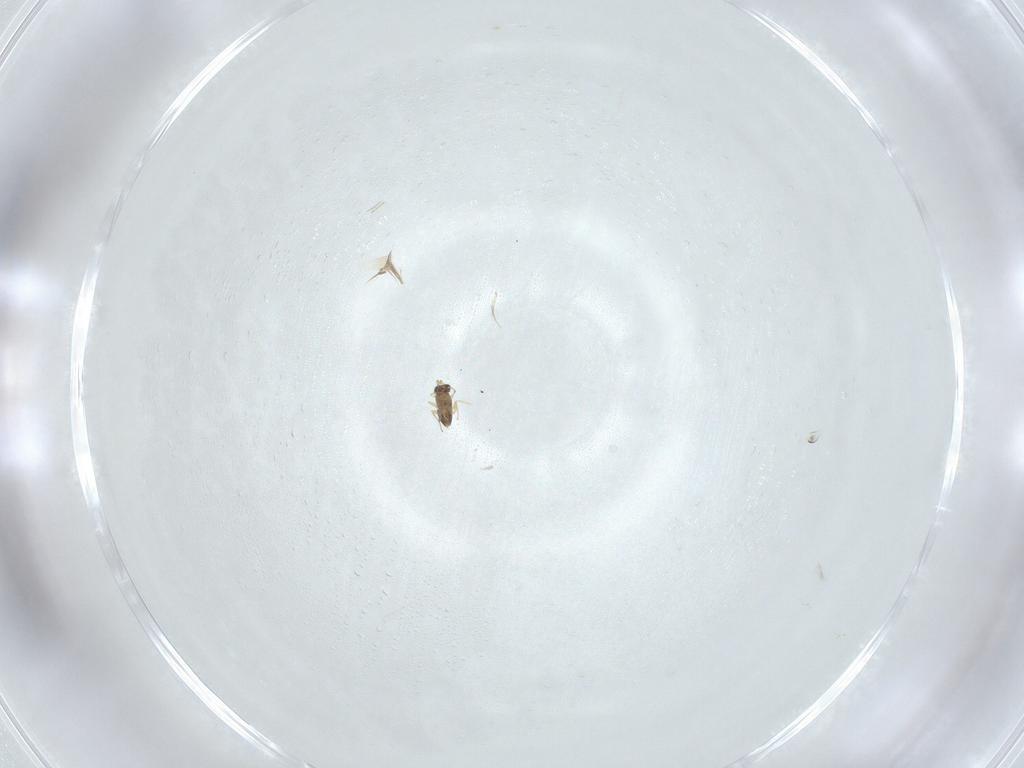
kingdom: Animalia
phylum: Arthropoda
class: Insecta
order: Hymenoptera
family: Mymaridae
